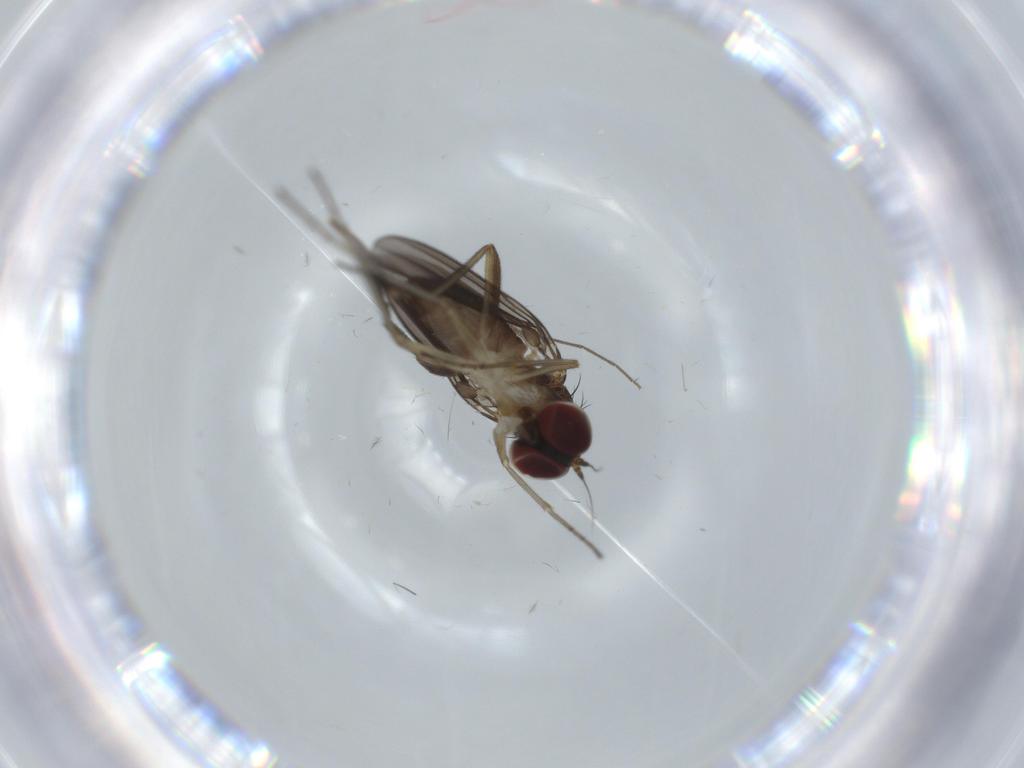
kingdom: Animalia
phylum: Arthropoda
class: Insecta
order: Diptera
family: Dolichopodidae
